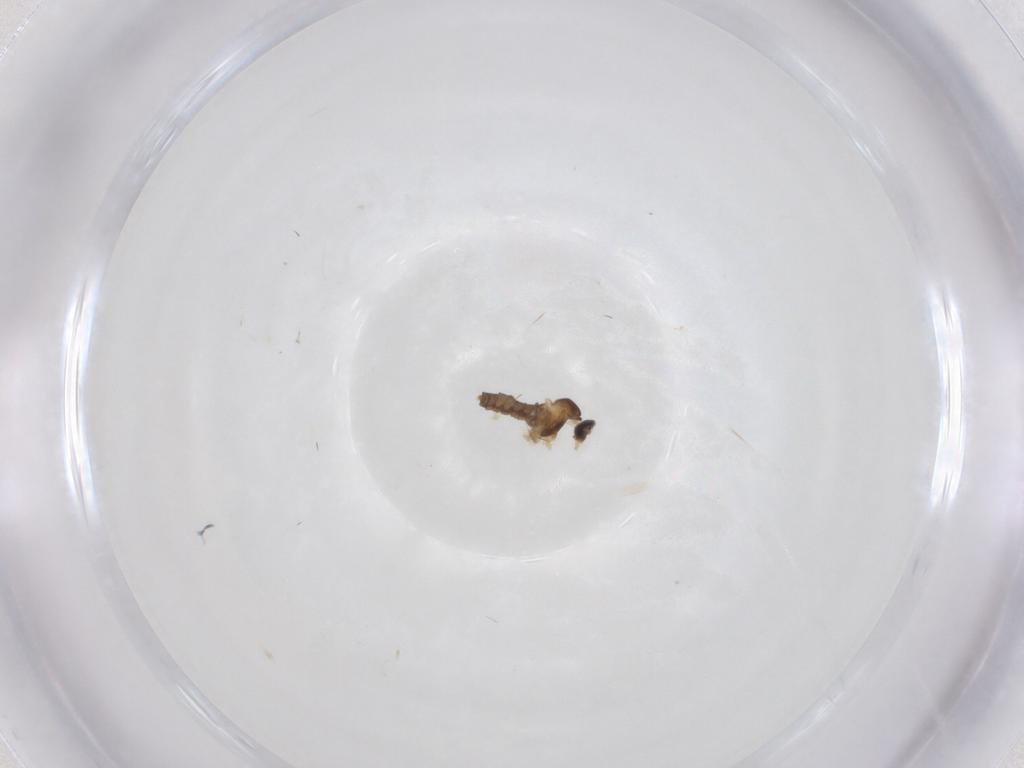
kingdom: Animalia
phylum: Arthropoda
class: Insecta
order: Diptera
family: Cecidomyiidae
